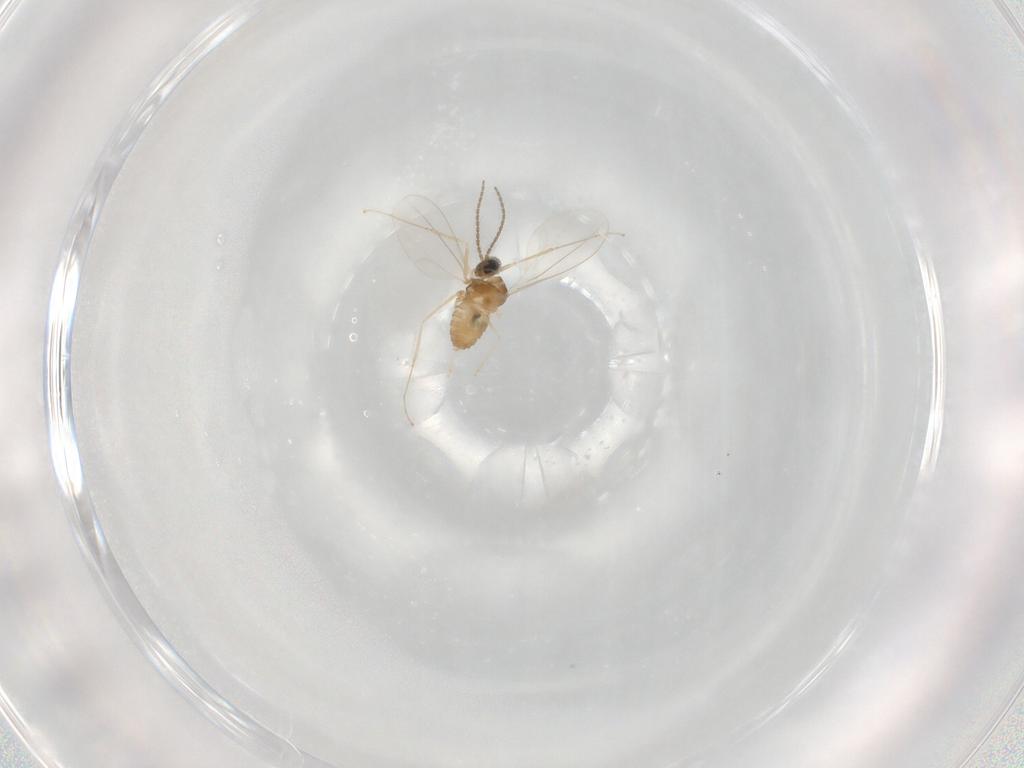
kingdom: Animalia
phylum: Arthropoda
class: Insecta
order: Diptera
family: Cecidomyiidae
